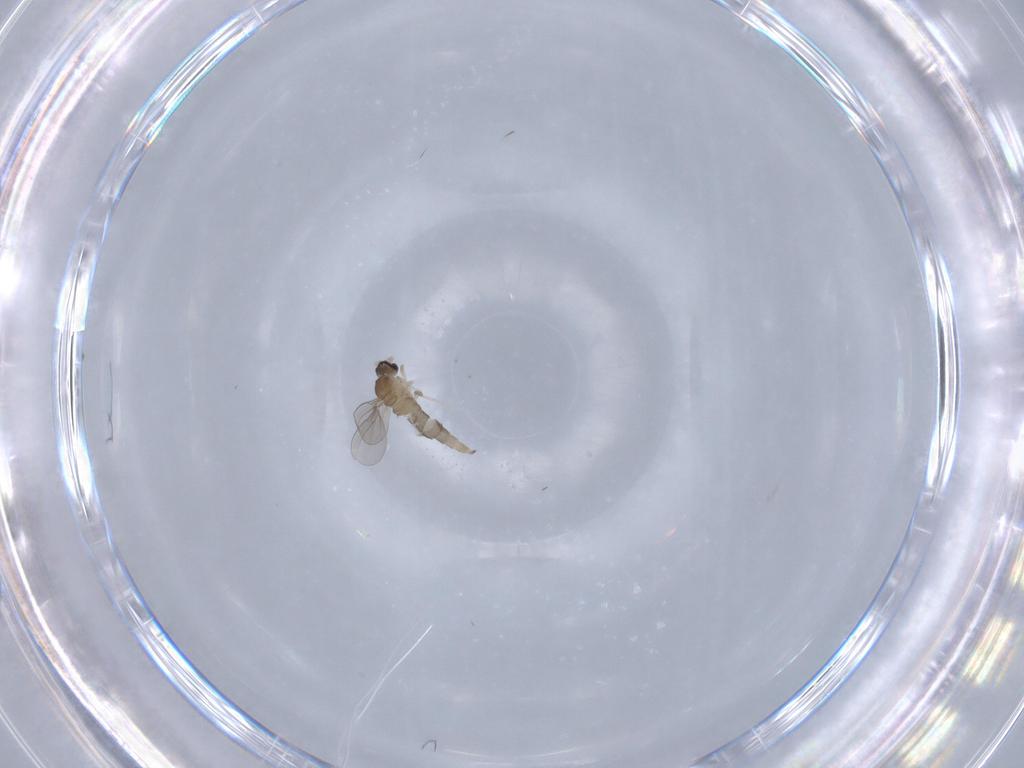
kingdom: Animalia
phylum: Arthropoda
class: Insecta
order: Diptera
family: Cecidomyiidae
